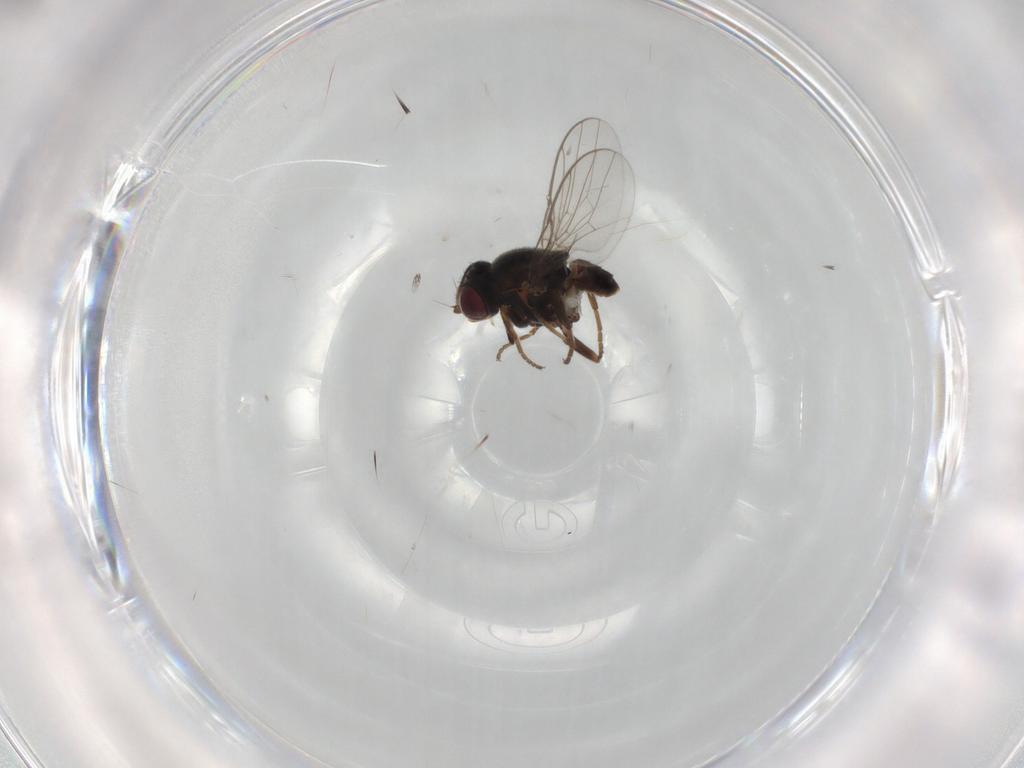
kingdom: Animalia
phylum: Arthropoda
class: Insecta
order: Diptera
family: Chloropidae
